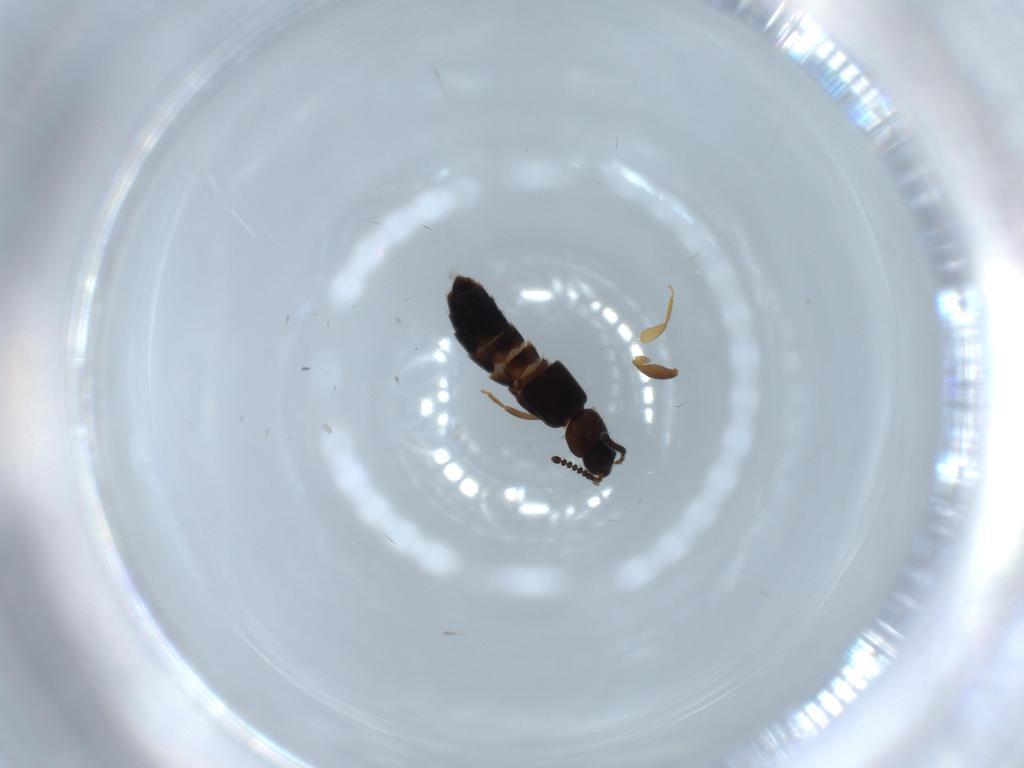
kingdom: Animalia
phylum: Arthropoda
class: Insecta
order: Coleoptera
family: Staphylinidae
